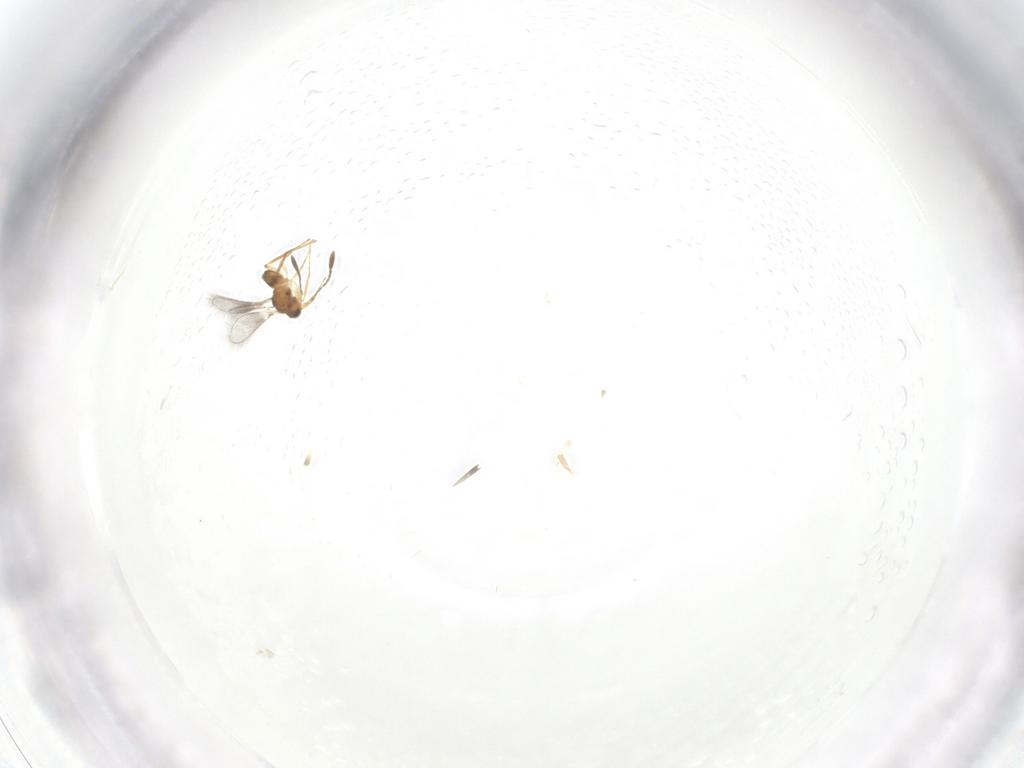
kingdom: Animalia
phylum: Arthropoda
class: Insecta
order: Hymenoptera
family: Mymaridae
